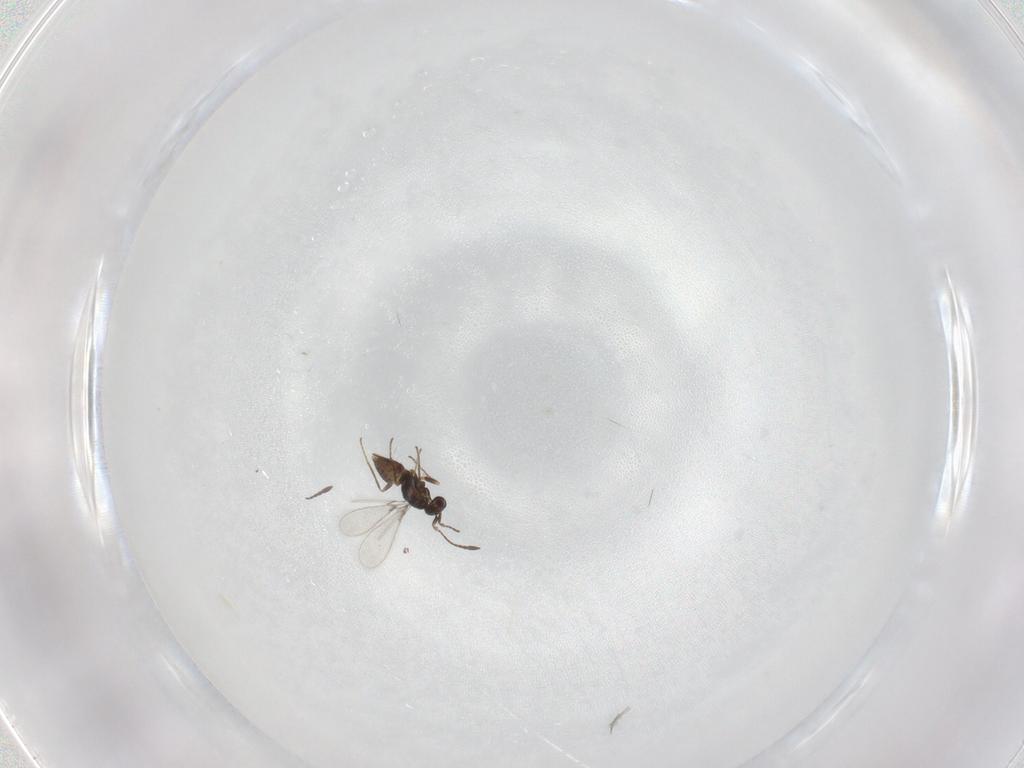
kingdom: Animalia
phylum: Arthropoda
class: Insecta
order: Hymenoptera
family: Mymaridae
